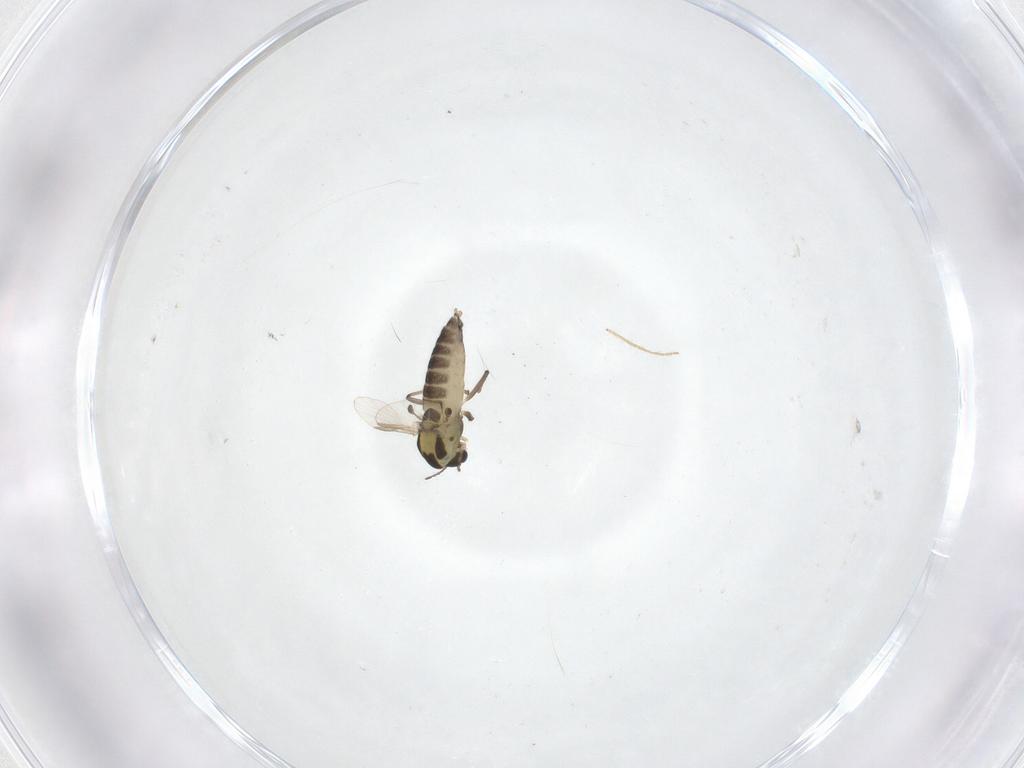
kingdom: Animalia
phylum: Arthropoda
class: Insecta
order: Diptera
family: Chironomidae
